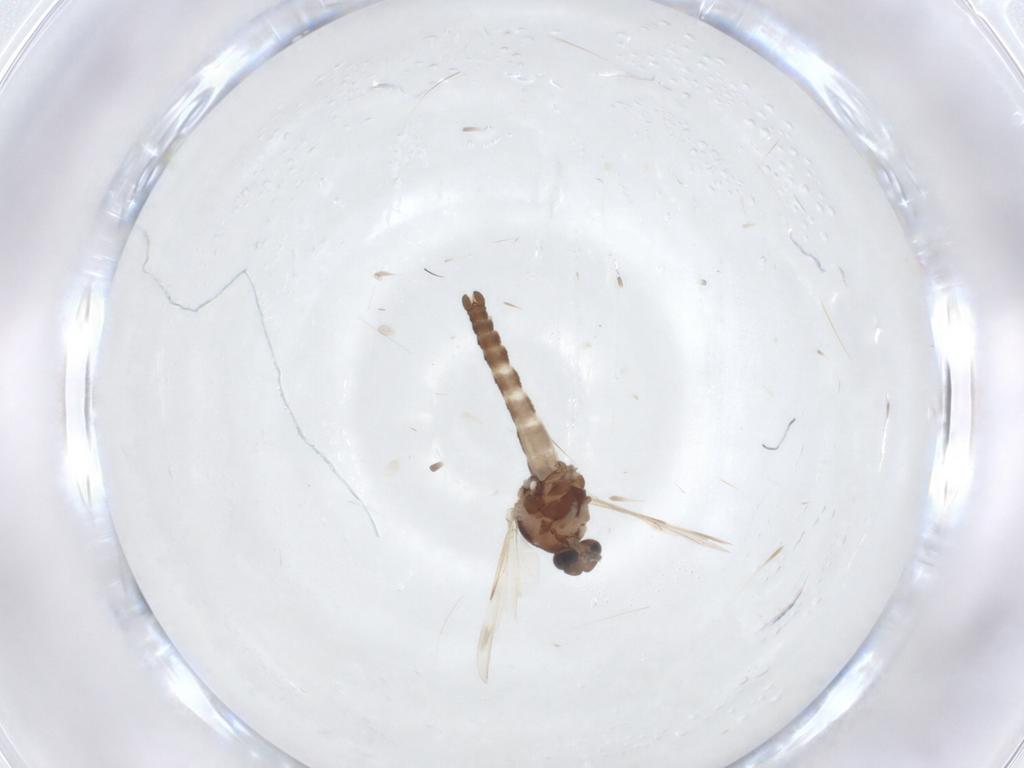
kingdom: Animalia
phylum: Arthropoda
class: Insecta
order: Diptera
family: Ceratopogonidae
